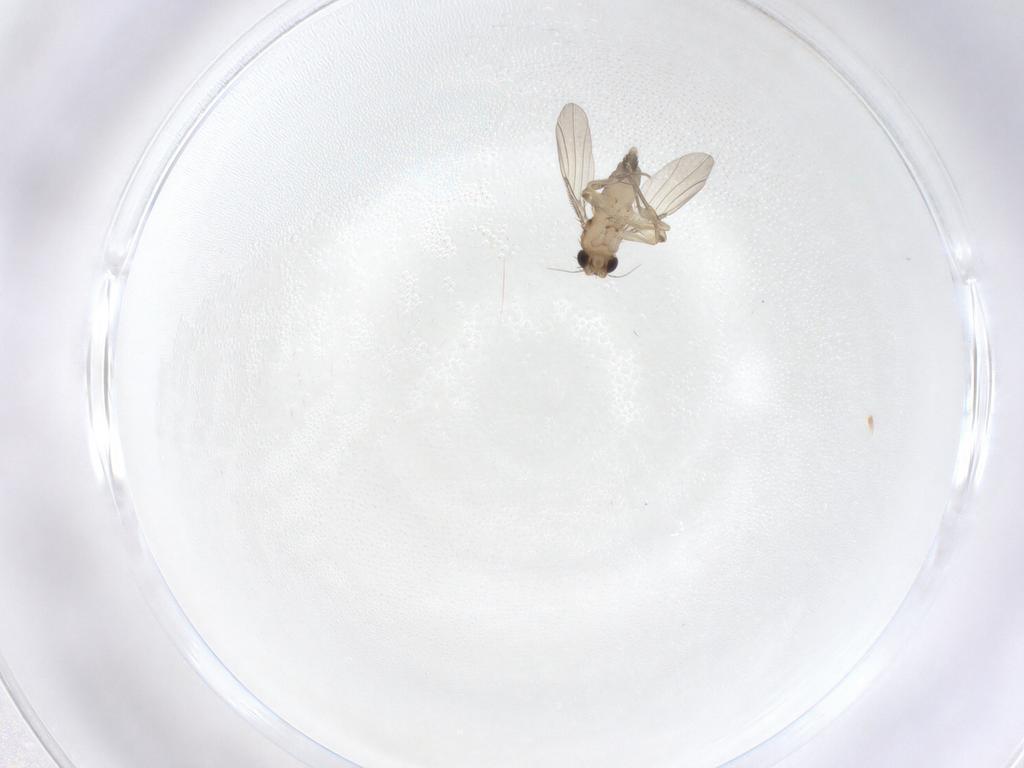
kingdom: Animalia
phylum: Arthropoda
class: Insecta
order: Diptera
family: Phoridae
